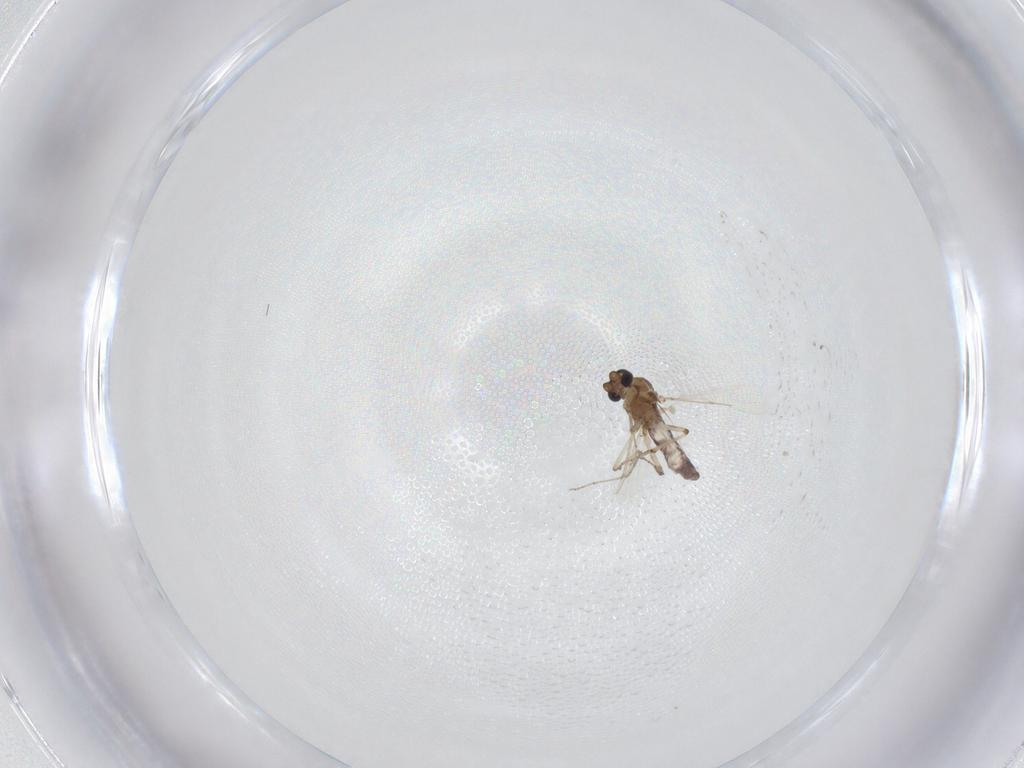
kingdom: Animalia
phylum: Arthropoda
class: Insecta
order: Diptera
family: Ceratopogonidae
